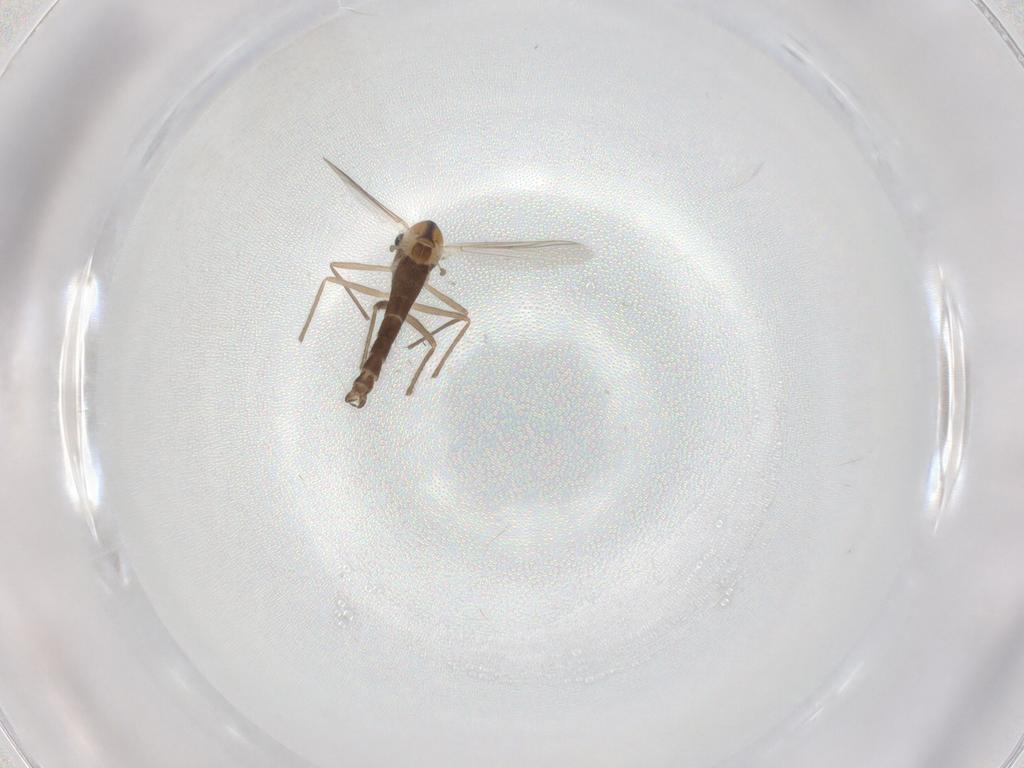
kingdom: Animalia
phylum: Arthropoda
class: Insecta
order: Diptera
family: Chironomidae
